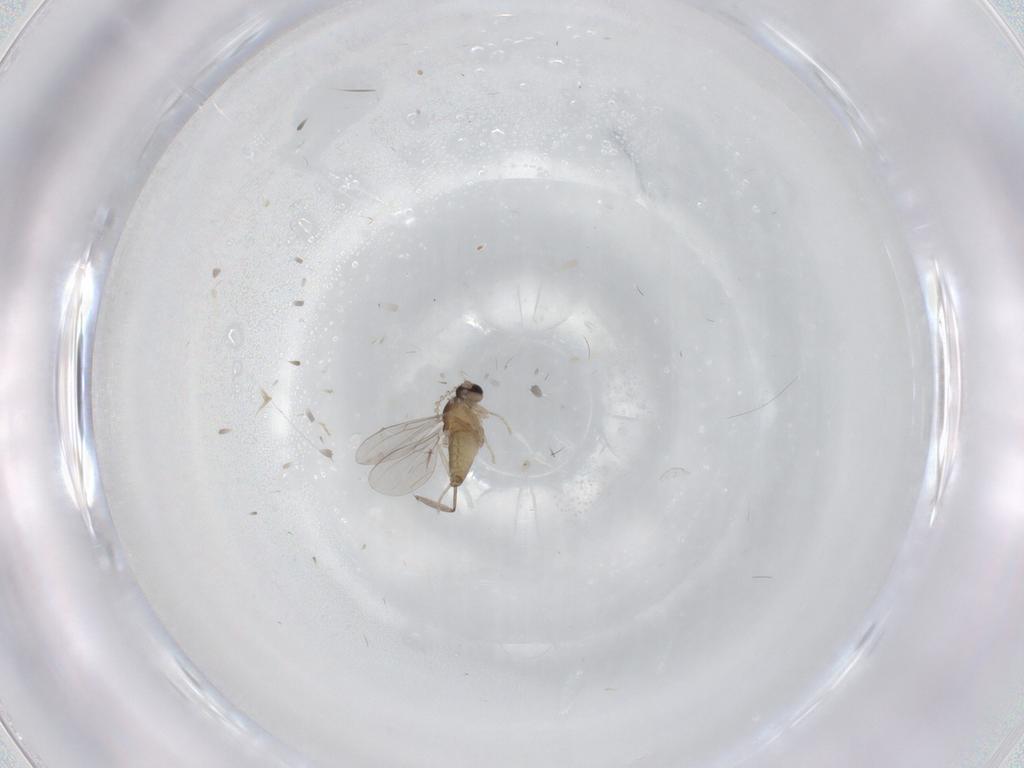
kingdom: Animalia
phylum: Arthropoda
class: Insecta
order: Diptera
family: Cecidomyiidae
